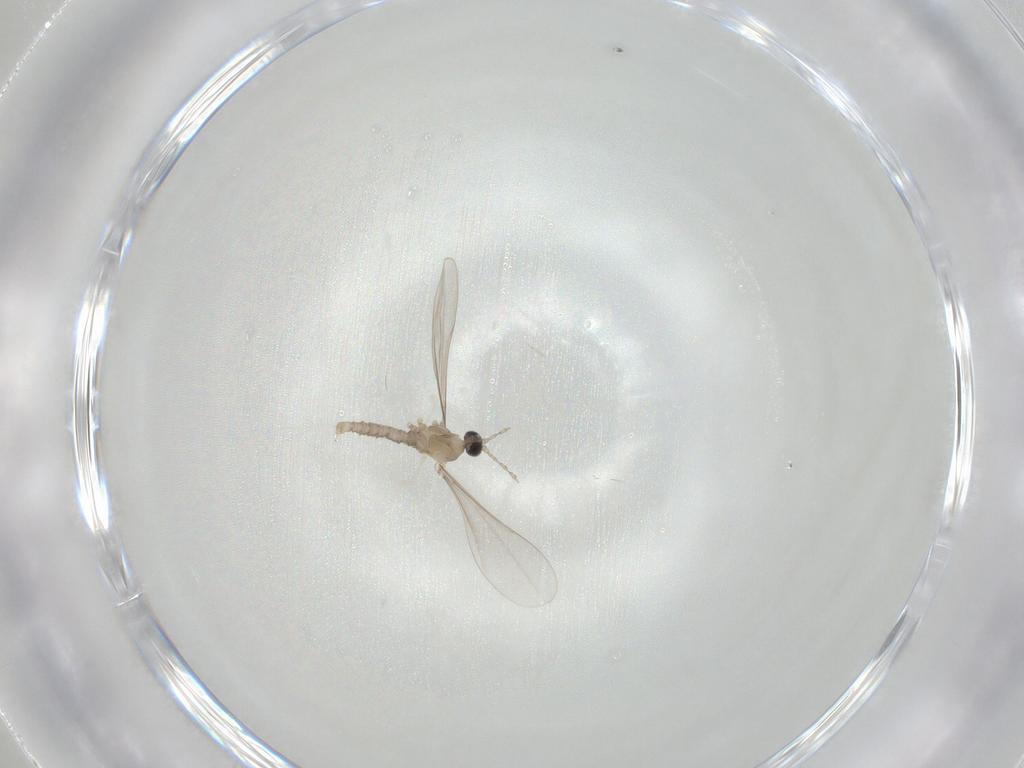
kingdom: Animalia
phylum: Arthropoda
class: Insecta
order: Diptera
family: Cecidomyiidae
